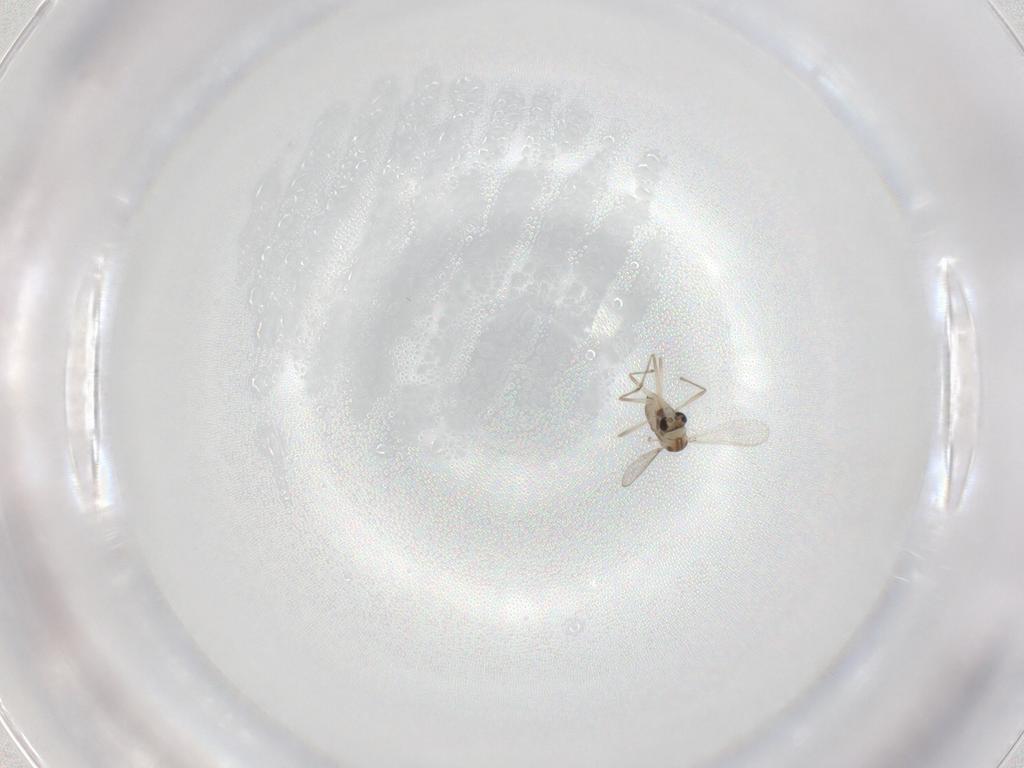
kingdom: Animalia
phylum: Arthropoda
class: Insecta
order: Diptera
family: Chironomidae
